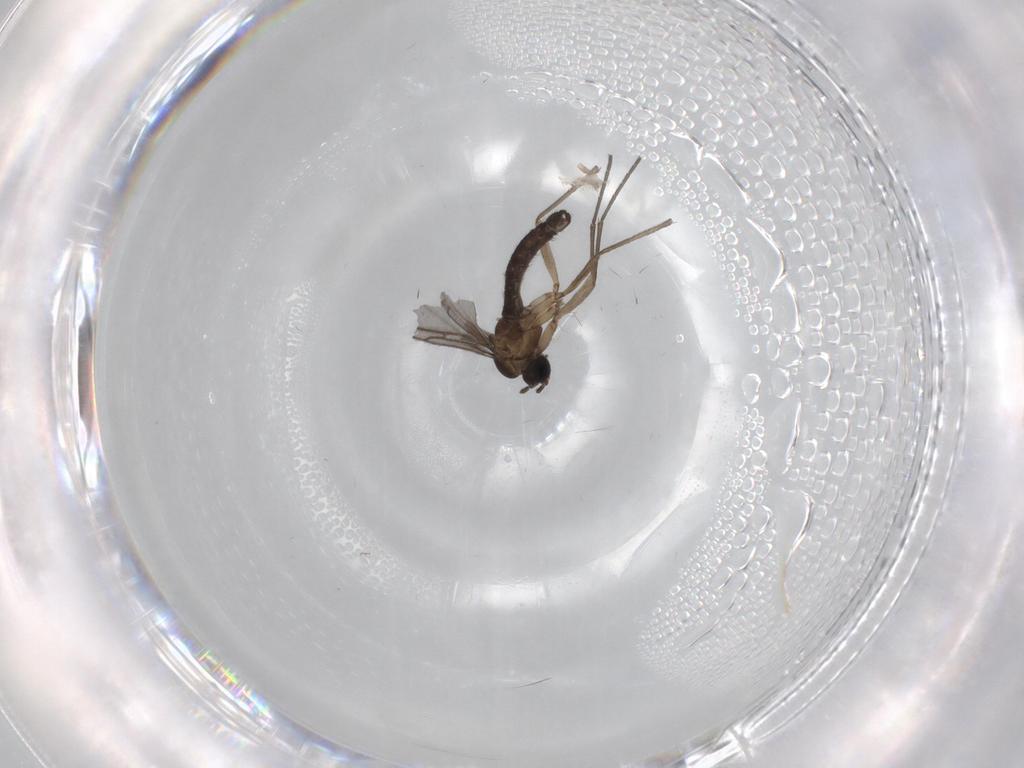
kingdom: Animalia
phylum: Arthropoda
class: Insecta
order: Diptera
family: Sciaridae
